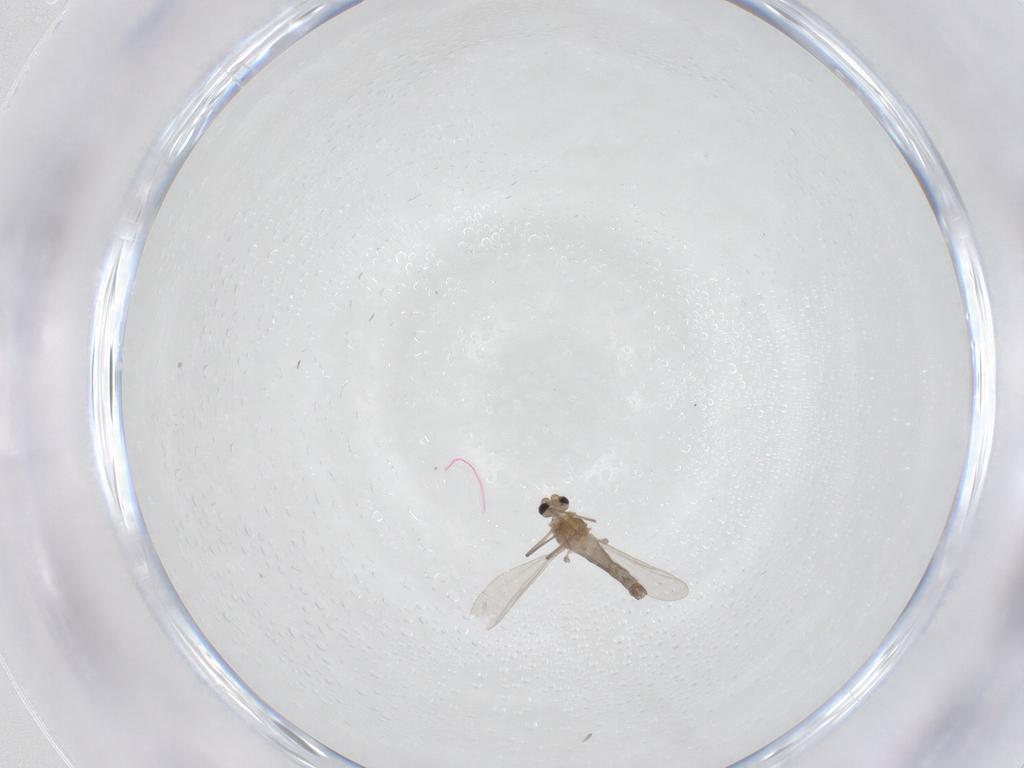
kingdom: Animalia
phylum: Arthropoda
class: Insecta
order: Diptera
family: Chironomidae
